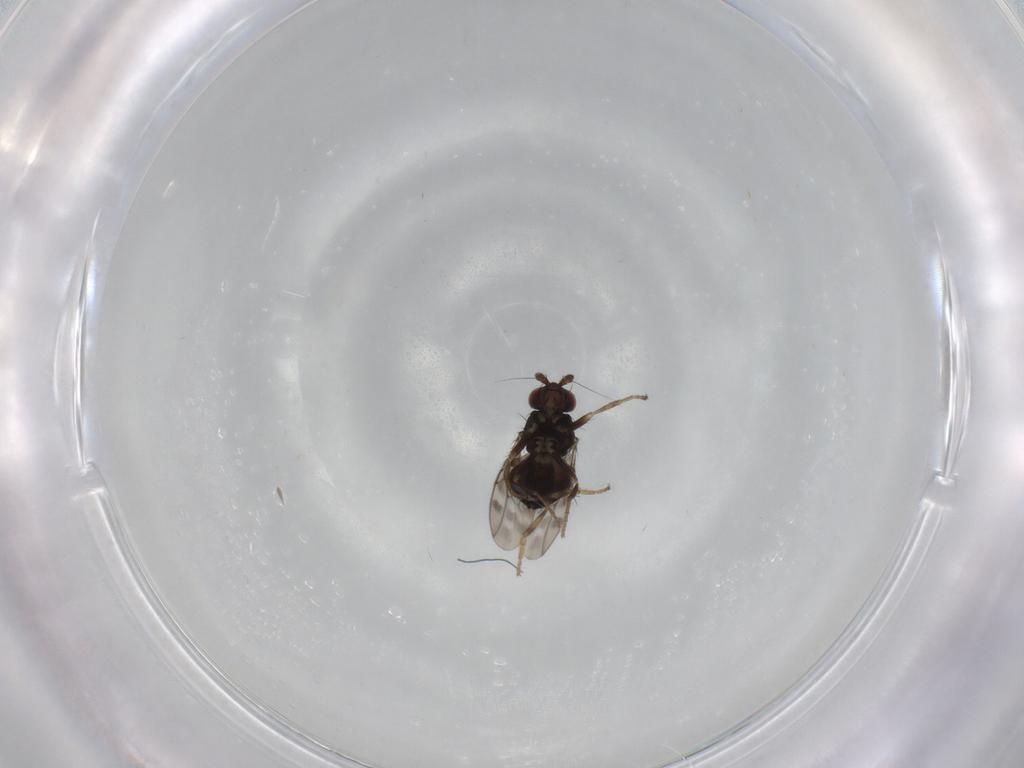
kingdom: Animalia
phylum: Arthropoda
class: Insecta
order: Diptera
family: Sphaeroceridae
